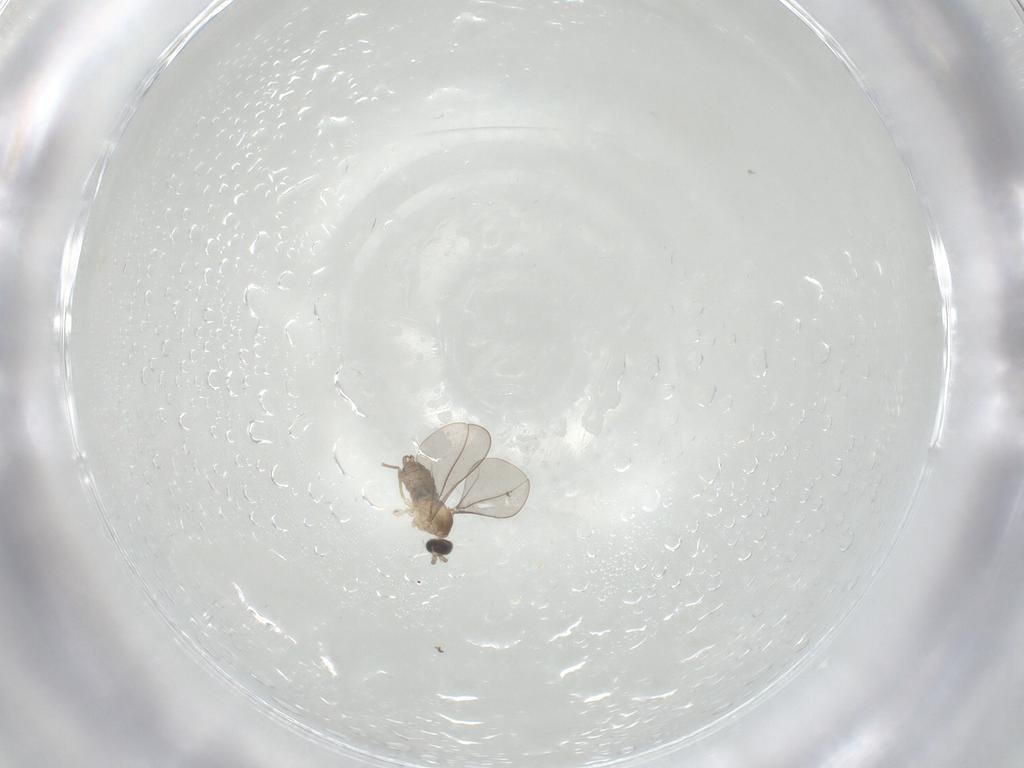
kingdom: Animalia
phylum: Arthropoda
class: Insecta
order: Diptera
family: Cecidomyiidae
